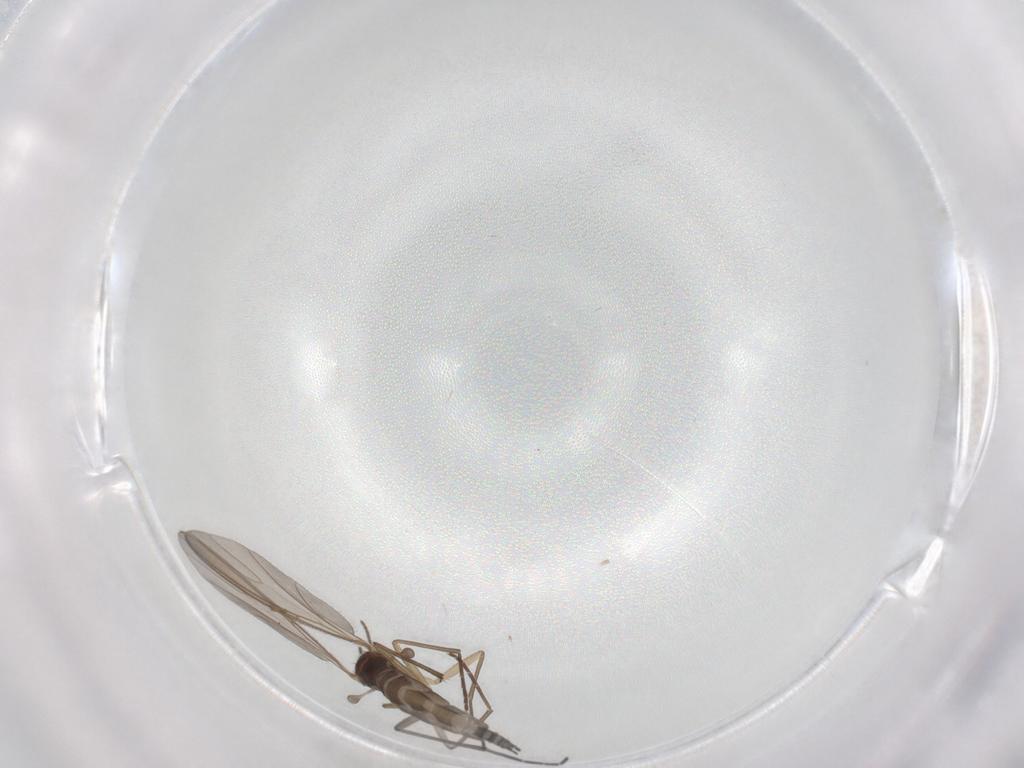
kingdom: Animalia
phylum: Arthropoda
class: Insecta
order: Diptera
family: Sciaridae
